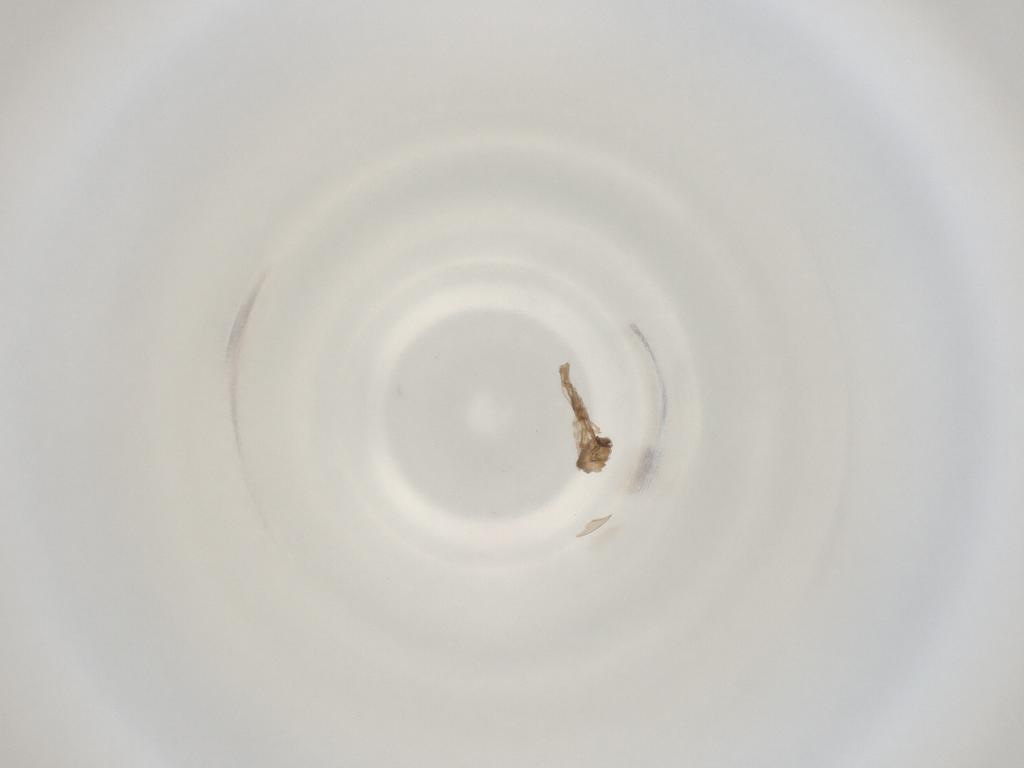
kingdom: Animalia
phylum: Arthropoda
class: Insecta
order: Diptera
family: Cecidomyiidae
